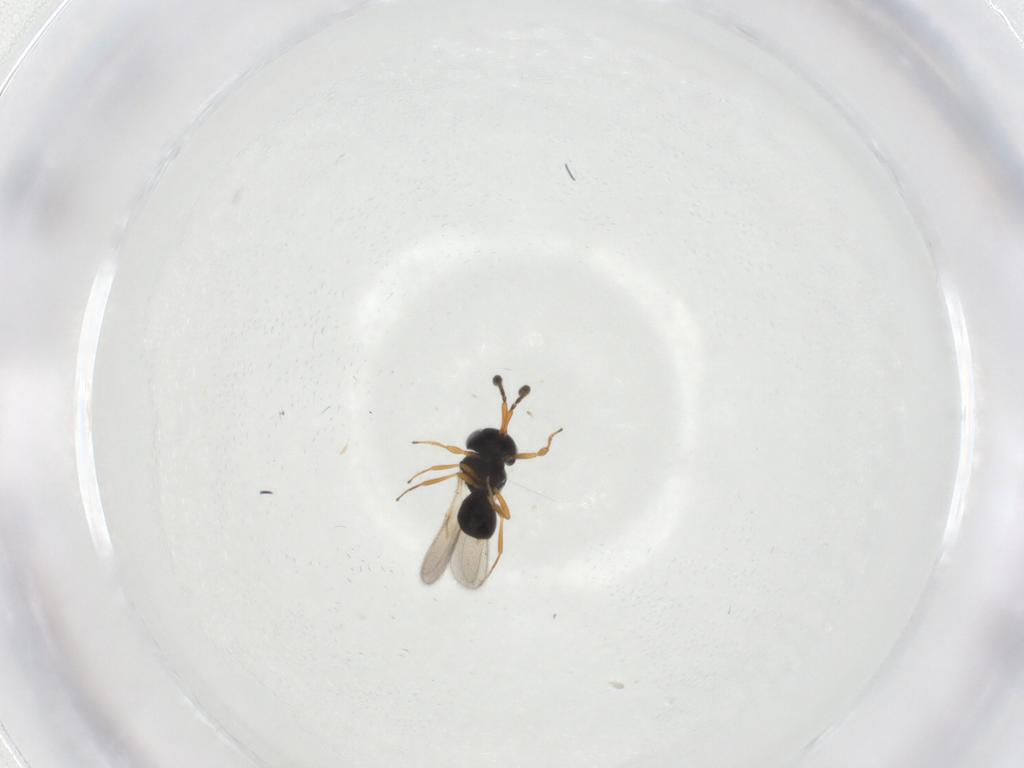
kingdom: Animalia
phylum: Arthropoda
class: Insecta
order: Hymenoptera
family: Scelionidae
